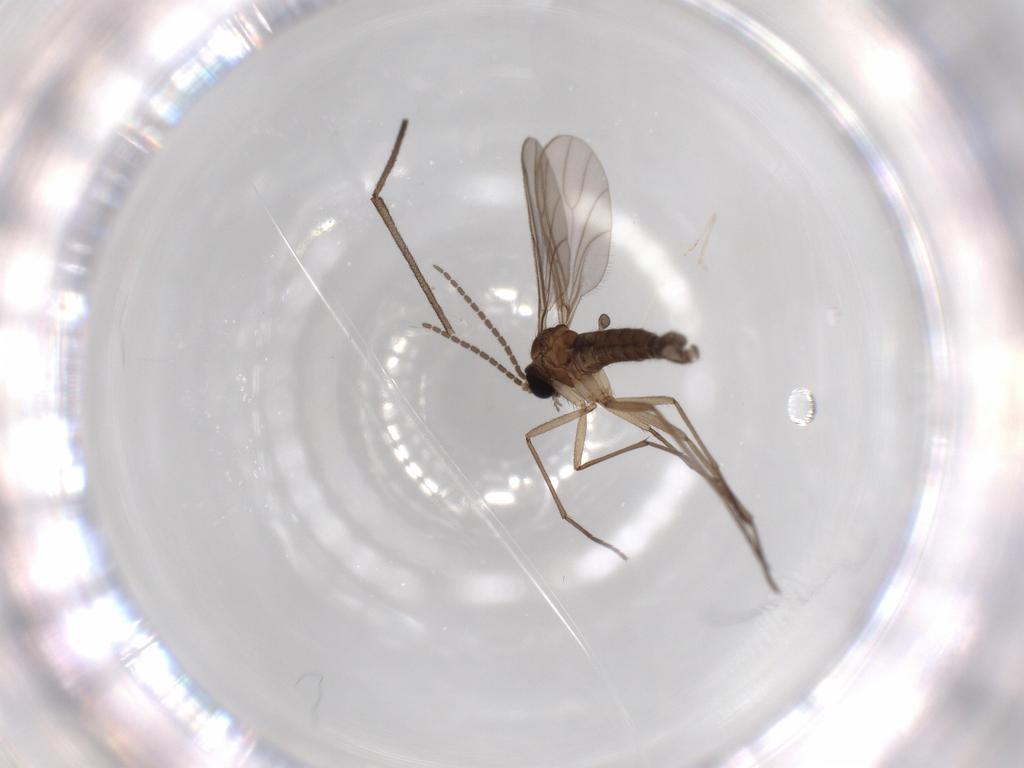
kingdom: Animalia
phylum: Arthropoda
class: Insecta
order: Diptera
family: Sciaridae
